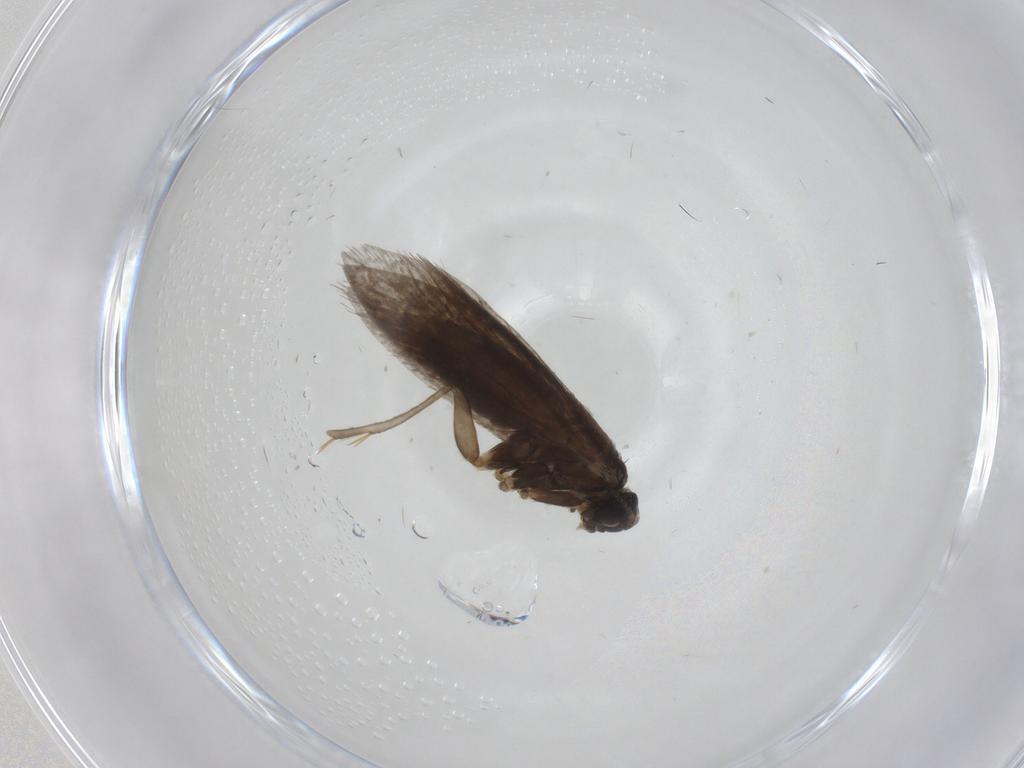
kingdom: Animalia
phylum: Arthropoda
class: Insecta
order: Lepidoptera
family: Micropterigidae
